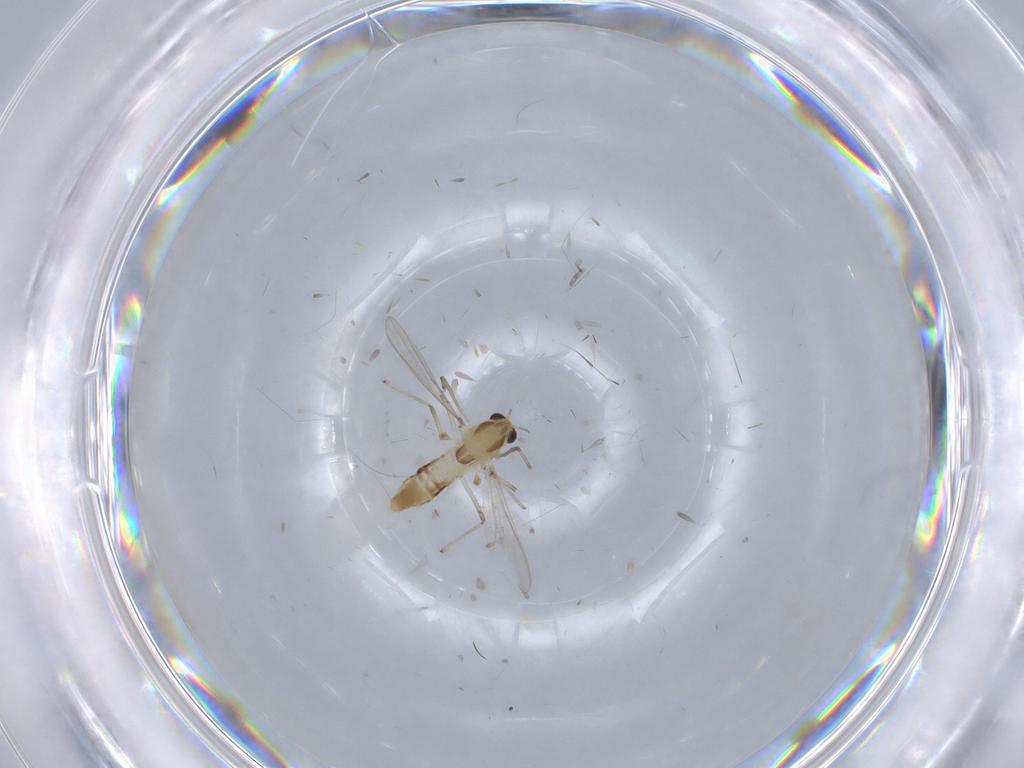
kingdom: Animalia
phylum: Arthropoda
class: Insecta
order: Diptera
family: Chironomidae
